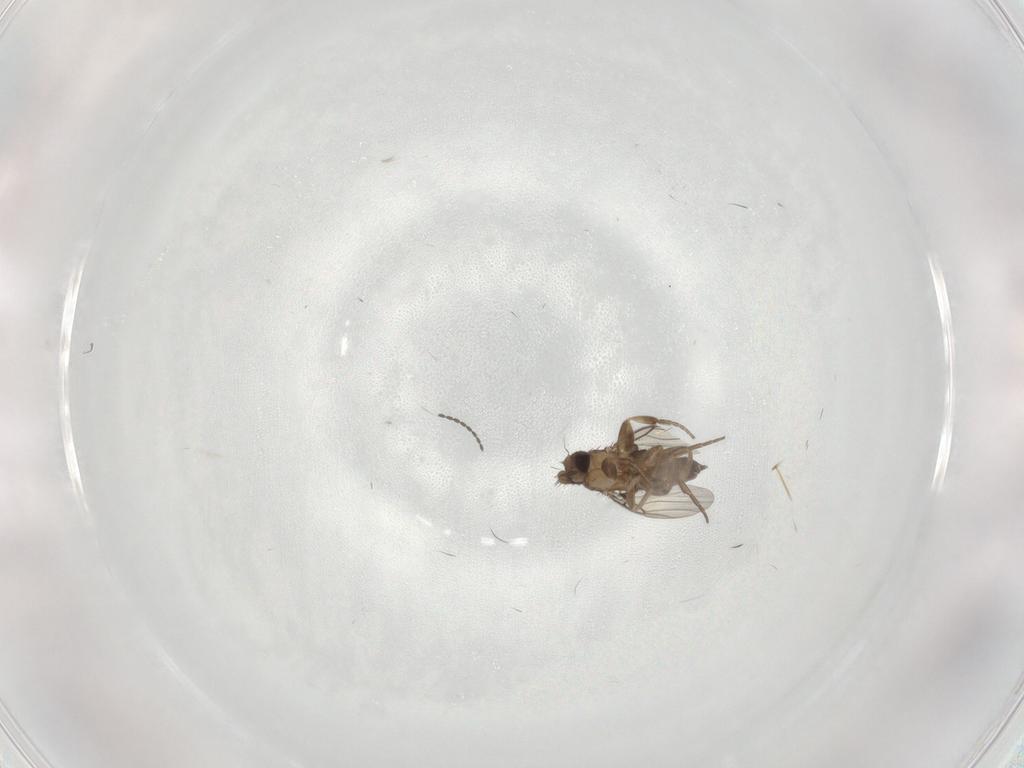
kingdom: Animalia
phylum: Arthropoda
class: Insecta
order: Diptera
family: Phoridae
